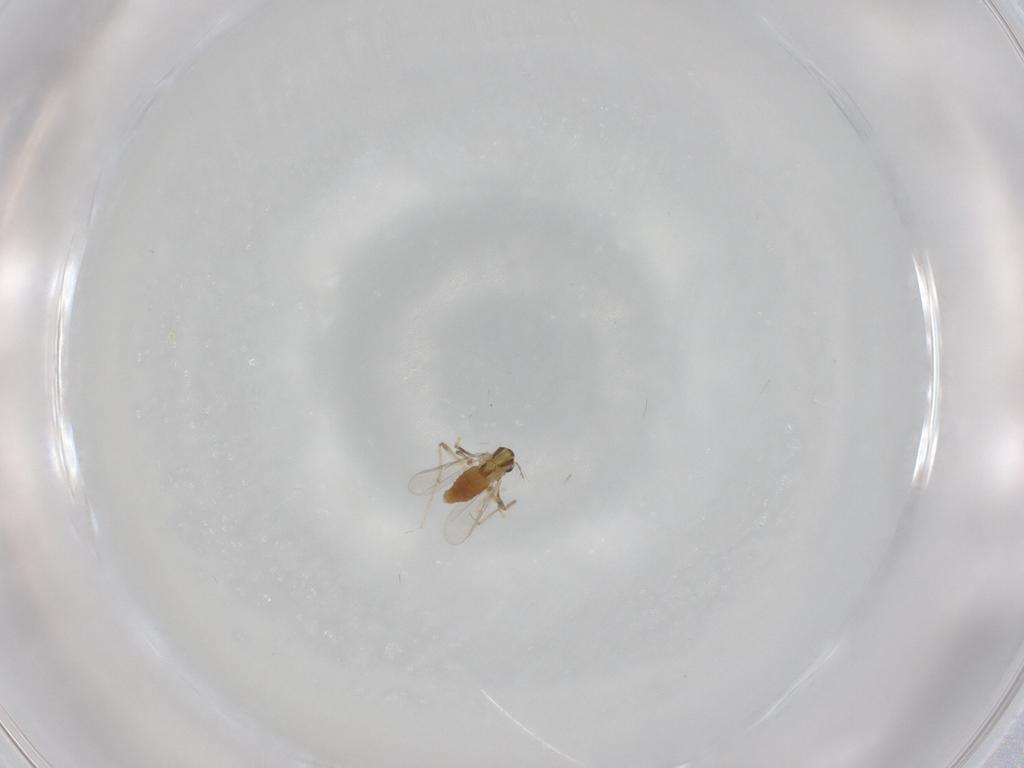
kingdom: Animalia
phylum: Arthropoda
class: Insecta
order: Diptera
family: Chironomidae
